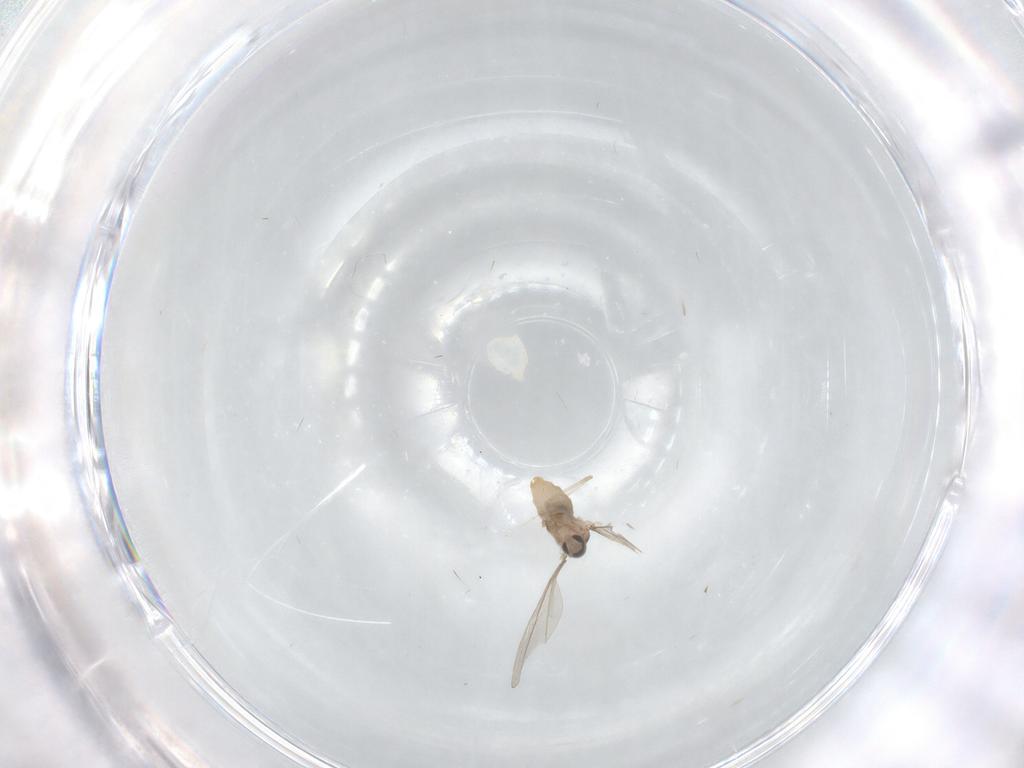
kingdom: Animalia
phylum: Arthropoda
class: Insecta
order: Diptera
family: Cecidomyiidae
